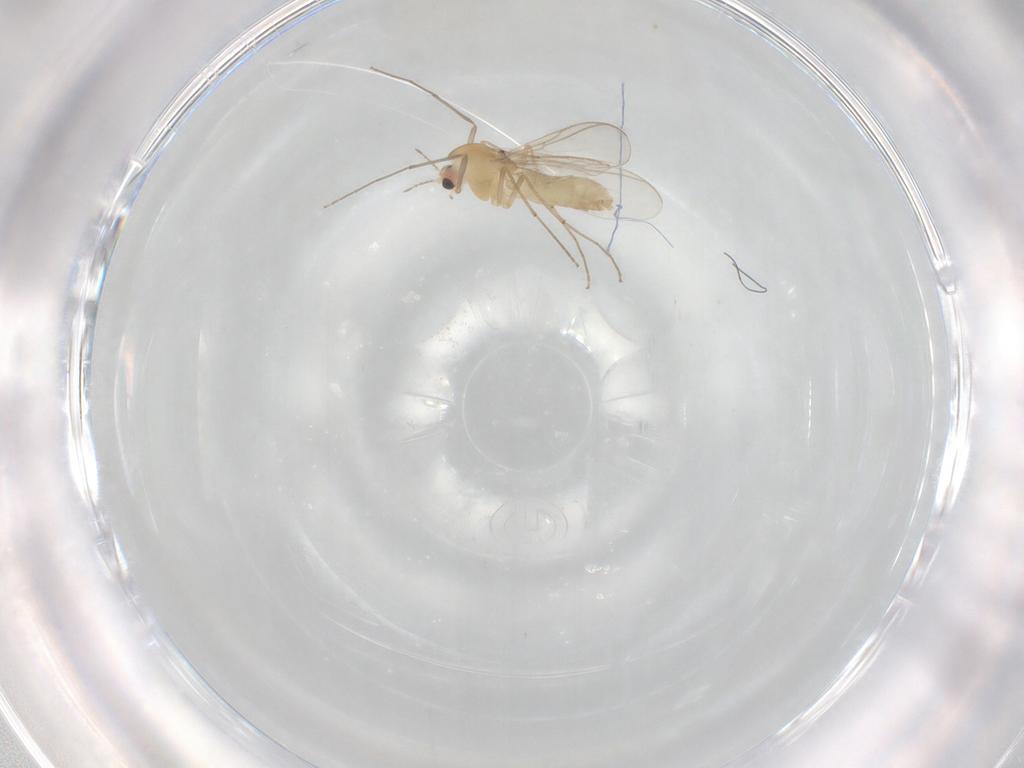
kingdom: Animalia
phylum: Arthropoda
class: Insecta
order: Diptera
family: Chironomidae
